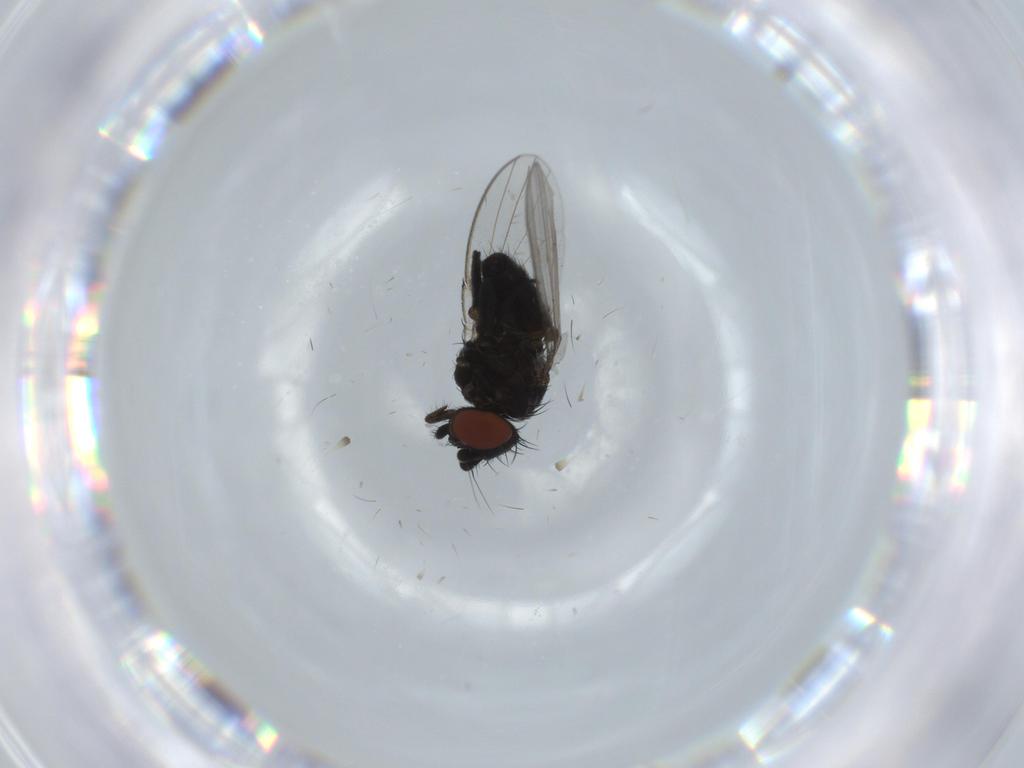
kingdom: Animalia
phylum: Arthropoda
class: Insecta
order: Diptera
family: Milichiidae
